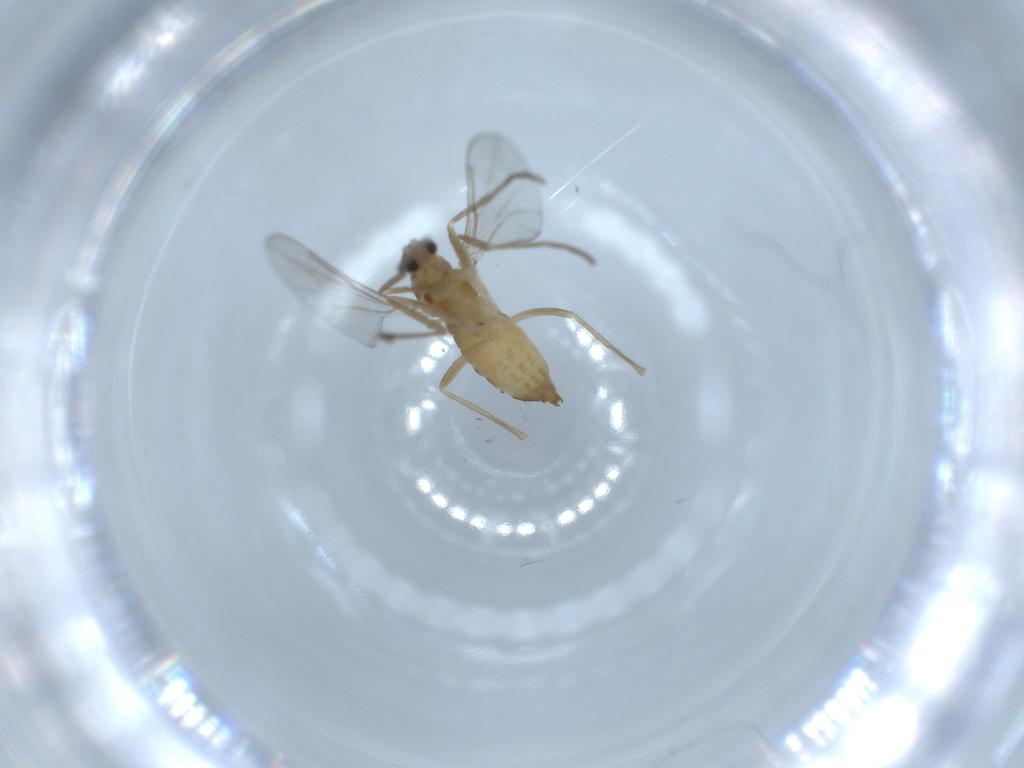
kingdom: Animalia
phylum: Arthropoda
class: Insecta
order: Diptera
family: Cecidomyiidae
